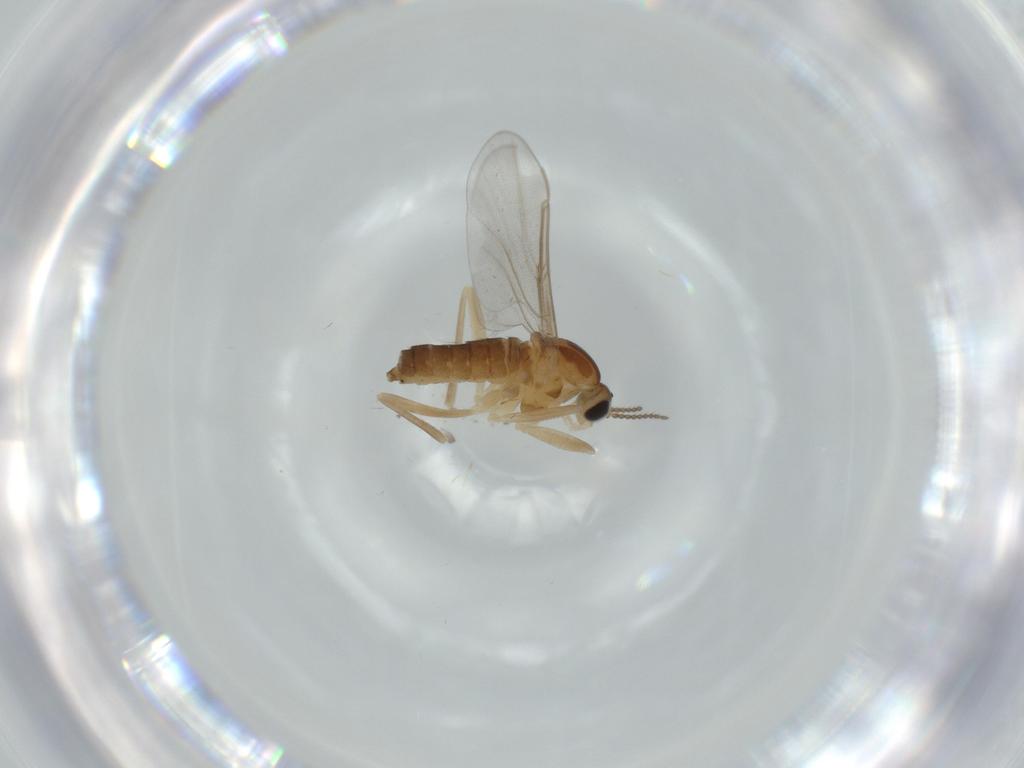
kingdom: Animalia
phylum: Arthropoda
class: Insecta
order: Diptera
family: Cecidomyiidae
